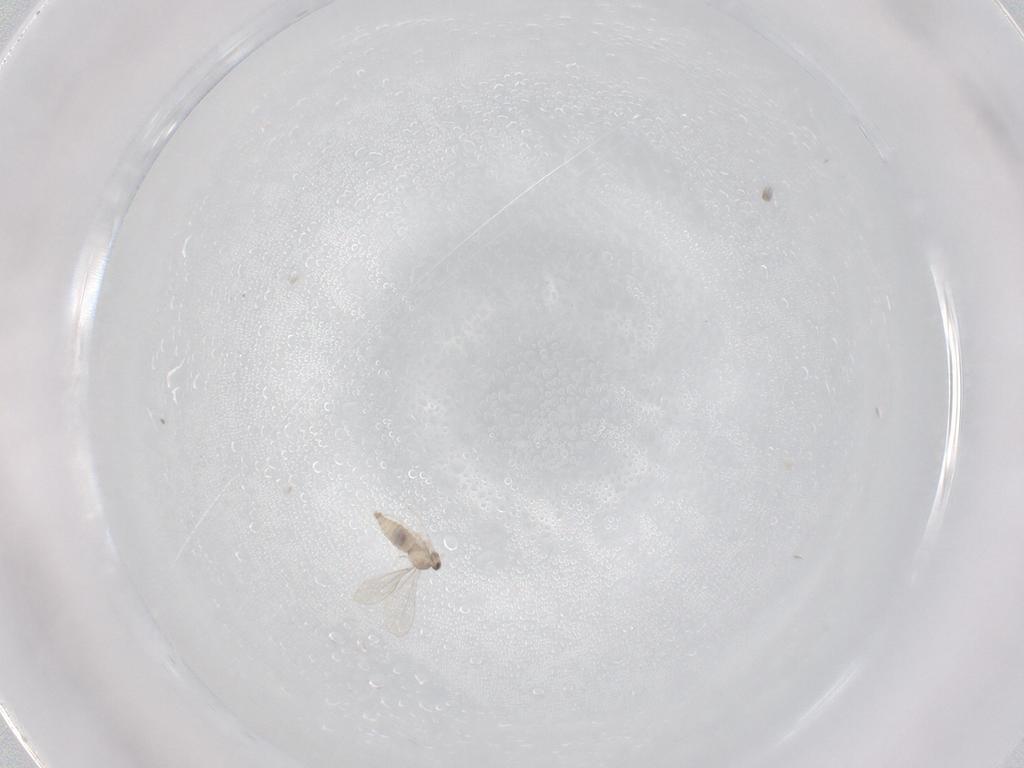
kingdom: Animalia
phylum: Arthropoda
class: Insecta
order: Diptera
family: Cecidomyiidae
